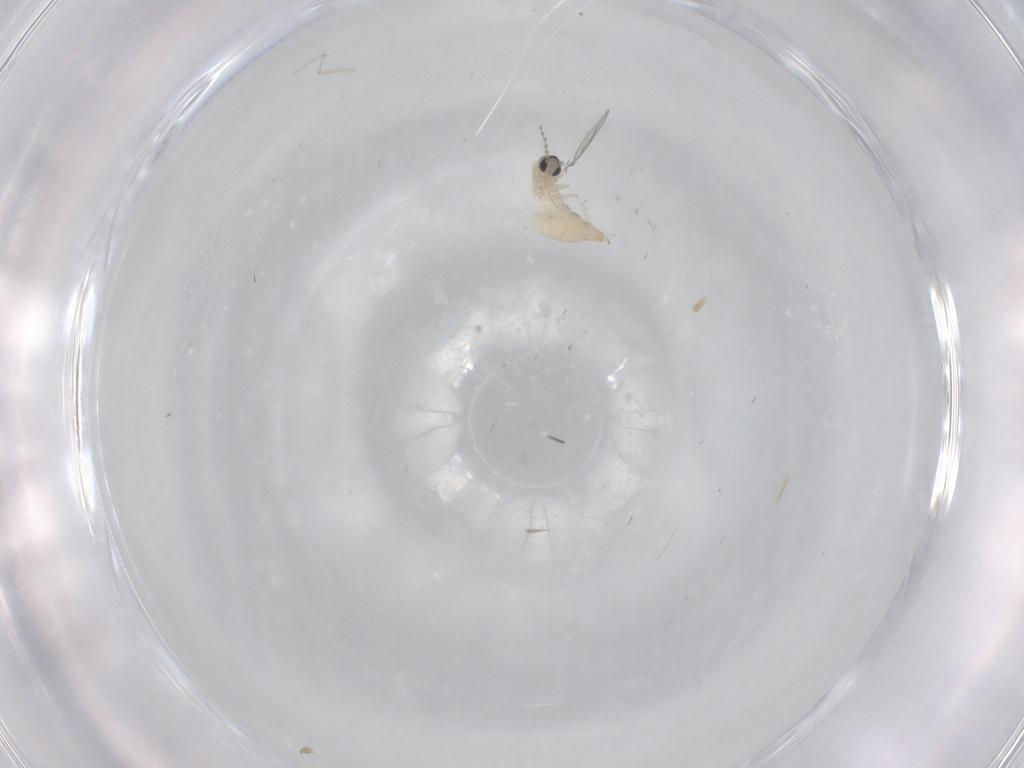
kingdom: Animalia
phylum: Arthropoda
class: Insecta
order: Diptera
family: Cecidomyiidae
